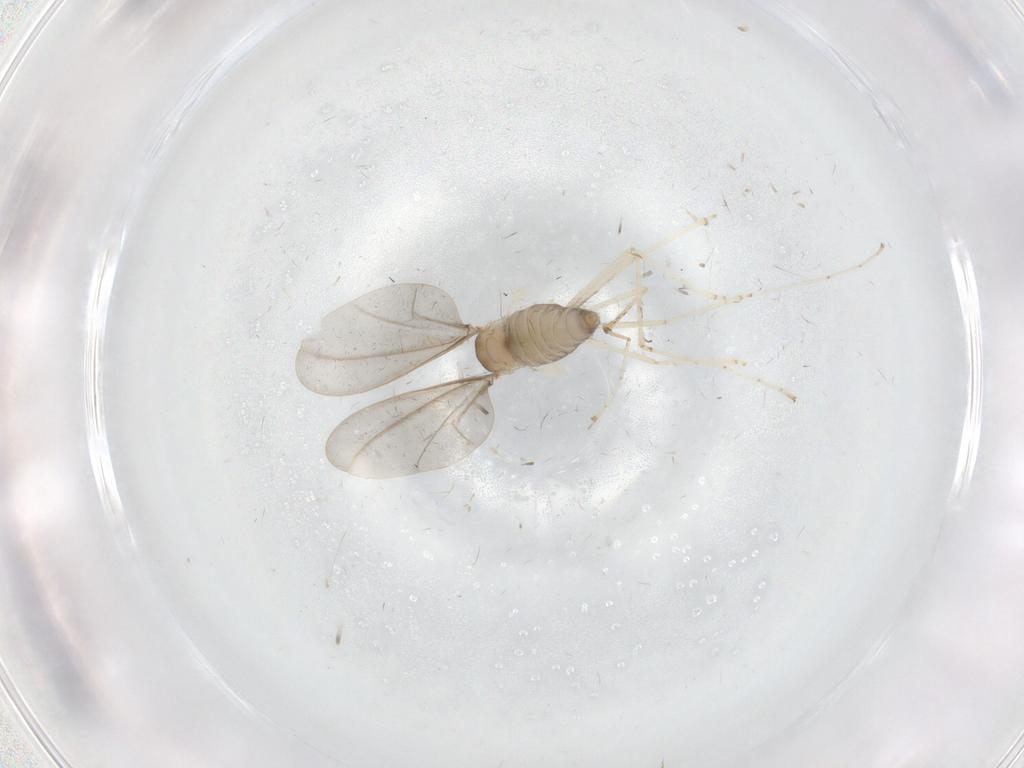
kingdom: Animalia
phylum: Arthropoda
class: Insecta
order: Diptera
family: Cecidomyiidae
